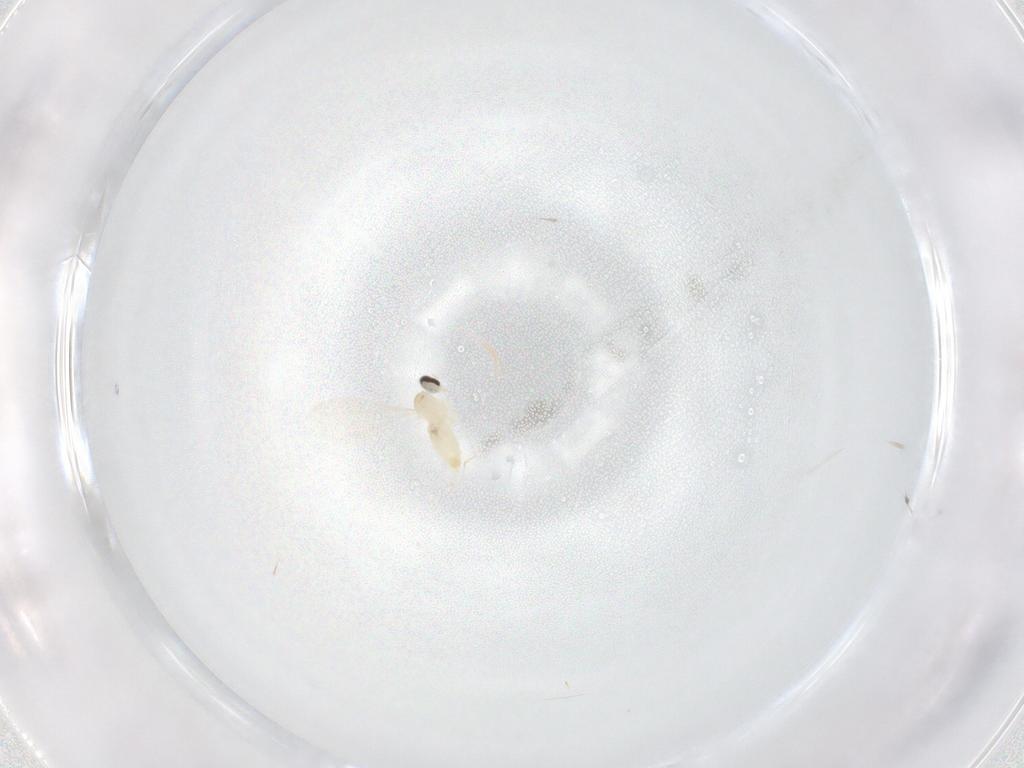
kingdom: Animalia
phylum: Arthropoda
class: Insecta
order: Diptera
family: Cecidomyiidae
